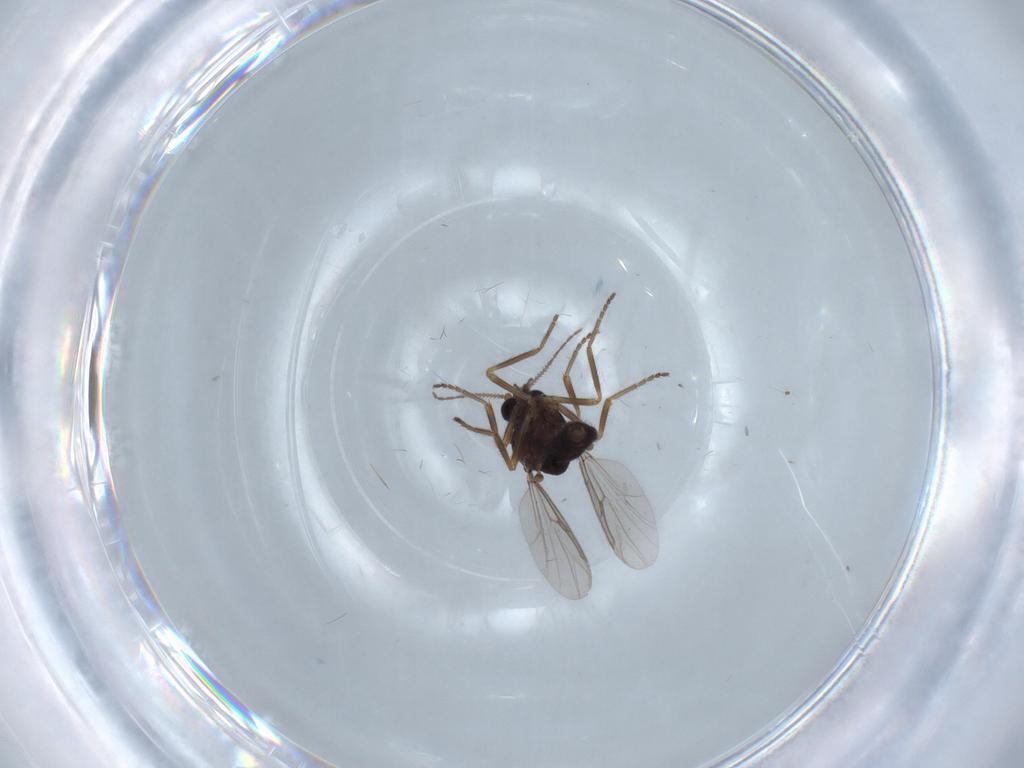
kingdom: Animalia
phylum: Arthropoda
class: Insecta
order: Diptera
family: Ceratopogonidae
